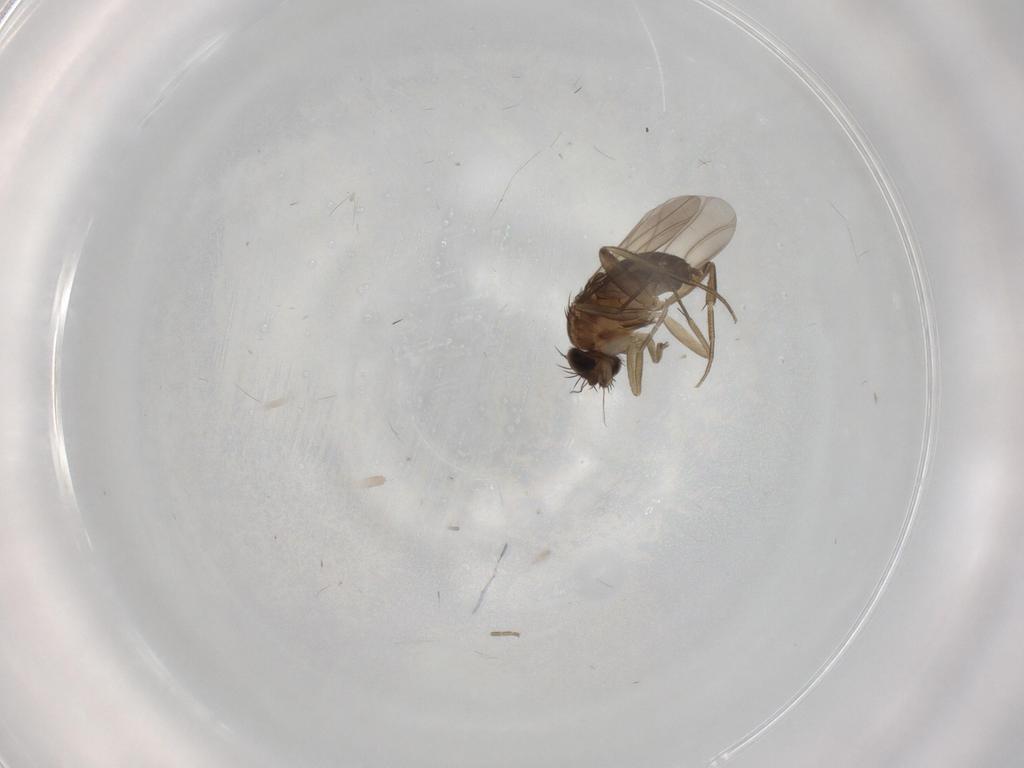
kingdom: Animalia
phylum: Arthropoda
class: Insecta
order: Diptera
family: Phoridae
